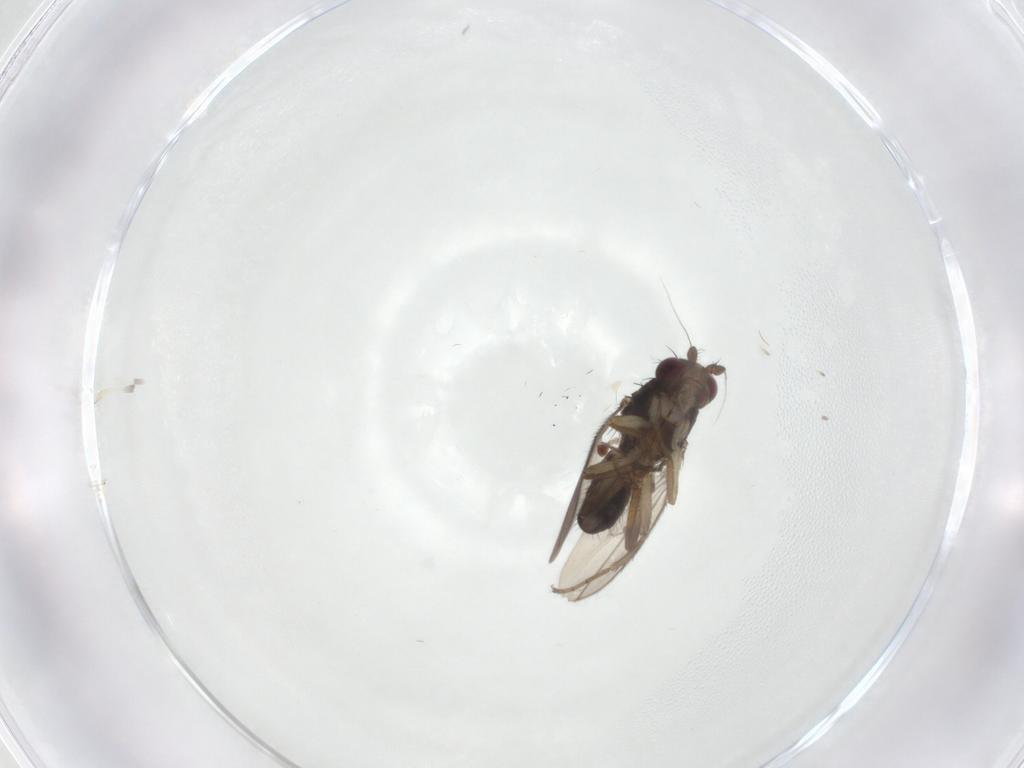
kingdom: Animalia
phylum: Arthropoda
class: Insecta
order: Diptera
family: Sphaeroceridae
